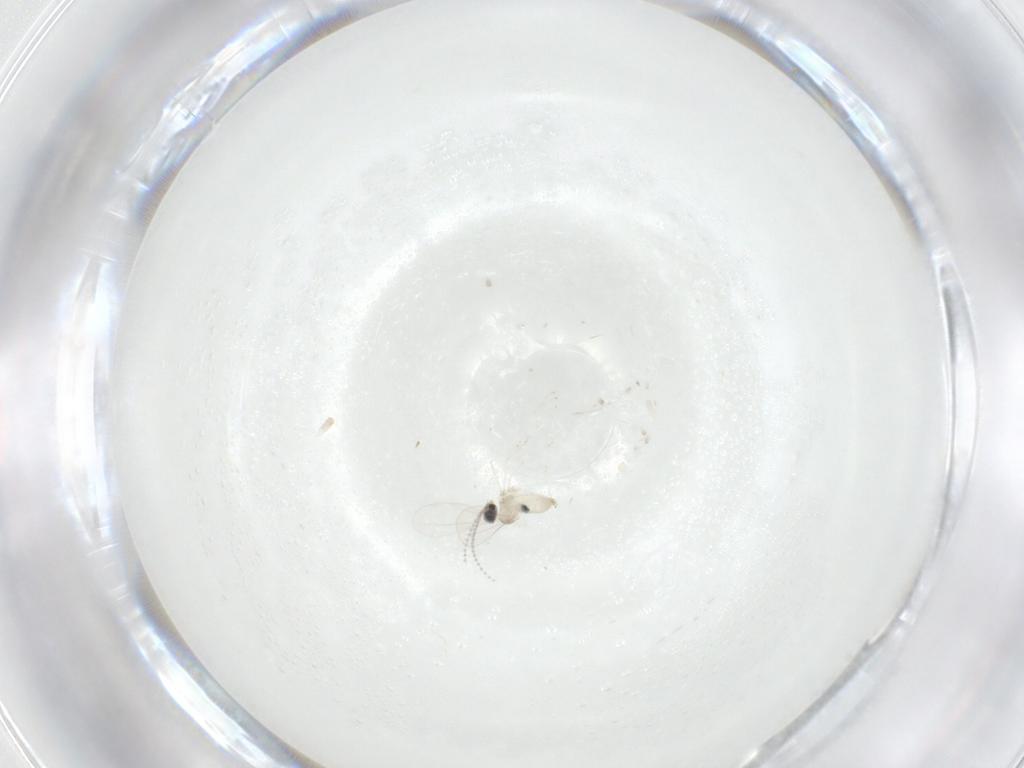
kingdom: Animalia
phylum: Arthropoda
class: Insecta
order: Diptera
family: Cecidomyiidae
